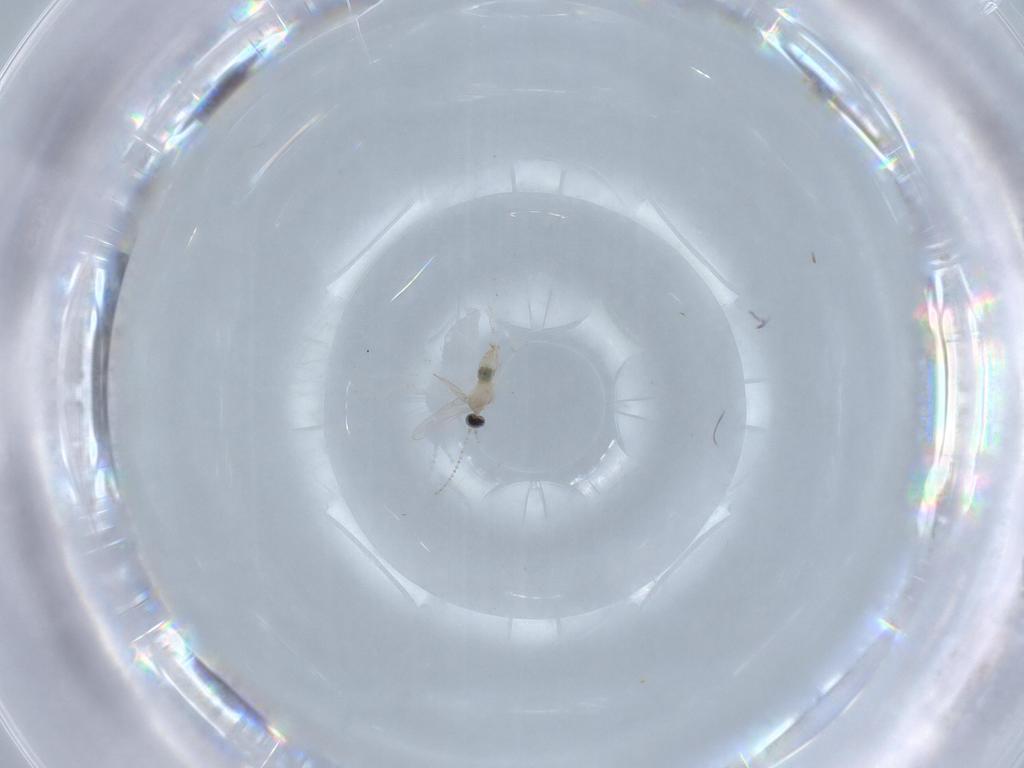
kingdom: Animalia
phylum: Arthropoda
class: Insecta
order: Diptera
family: Cecidomyiidae
